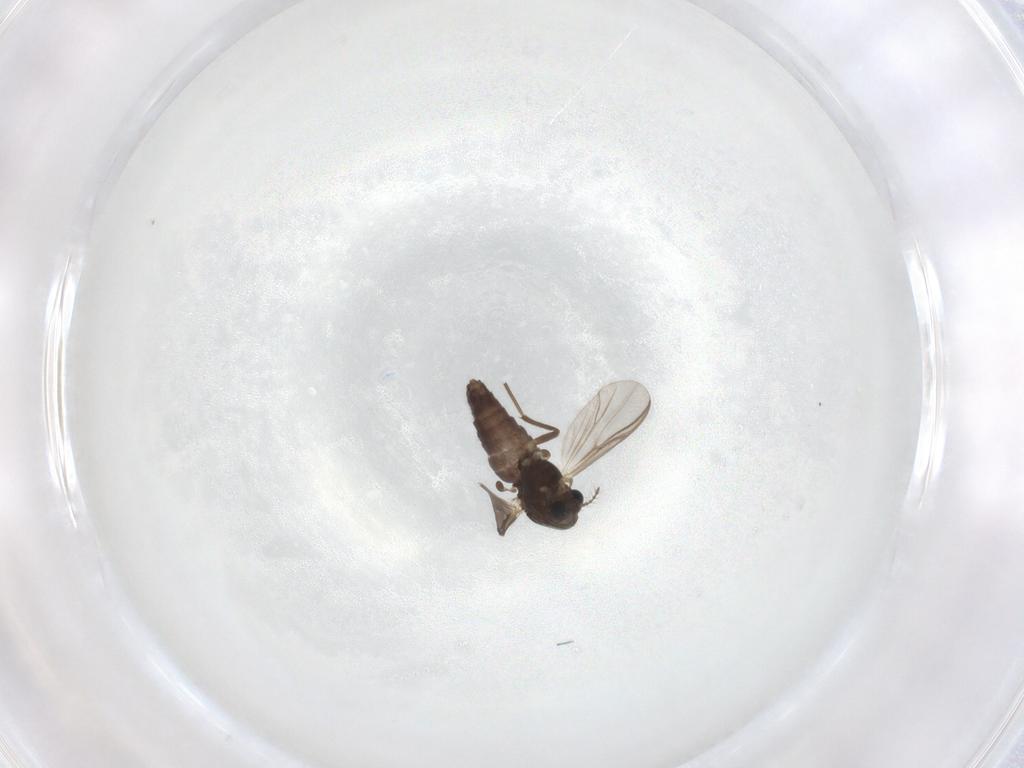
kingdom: Animalia
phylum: Arthropoda
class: Insecta
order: Diptera
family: Chironomidae
